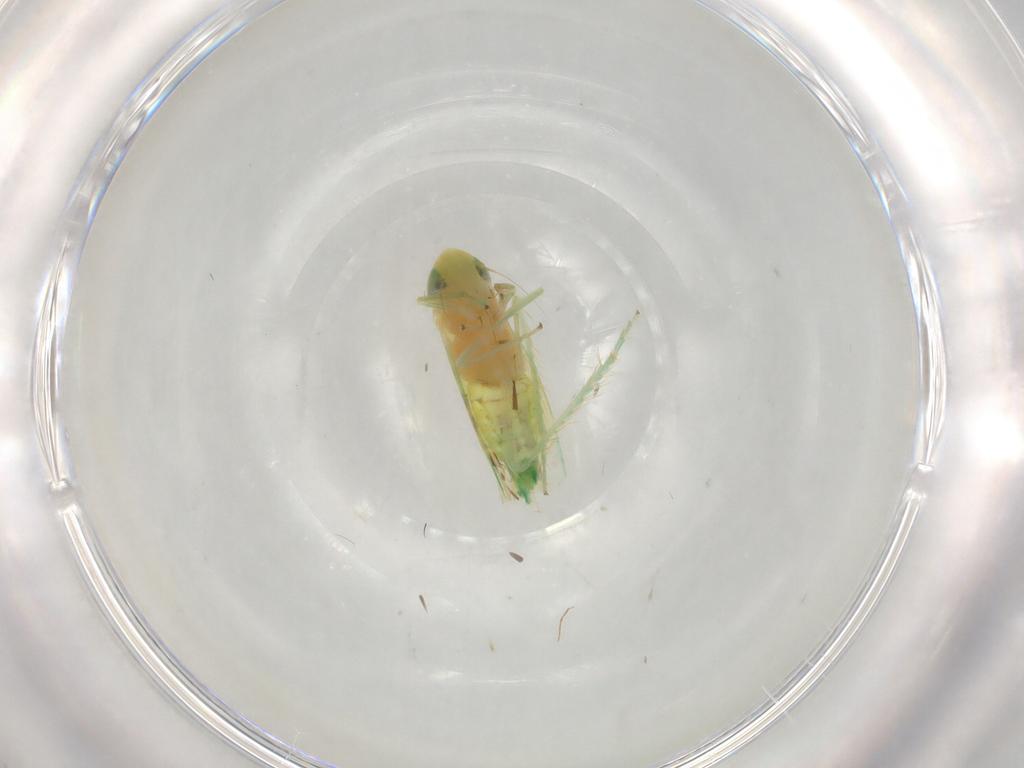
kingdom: Animalia
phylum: Arthropoda
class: Insecta
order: Hemiptera
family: Cicadellidae
